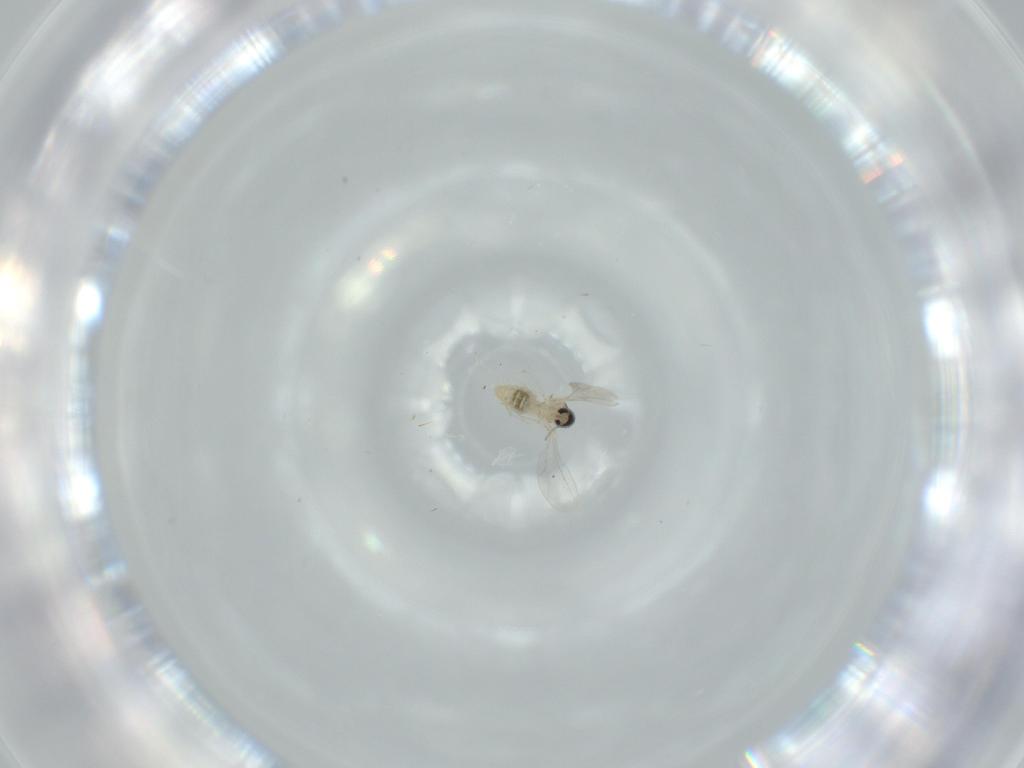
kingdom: Animalia
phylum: Arthropoda
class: Insecta
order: Diptera
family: Cecidomyiidae
